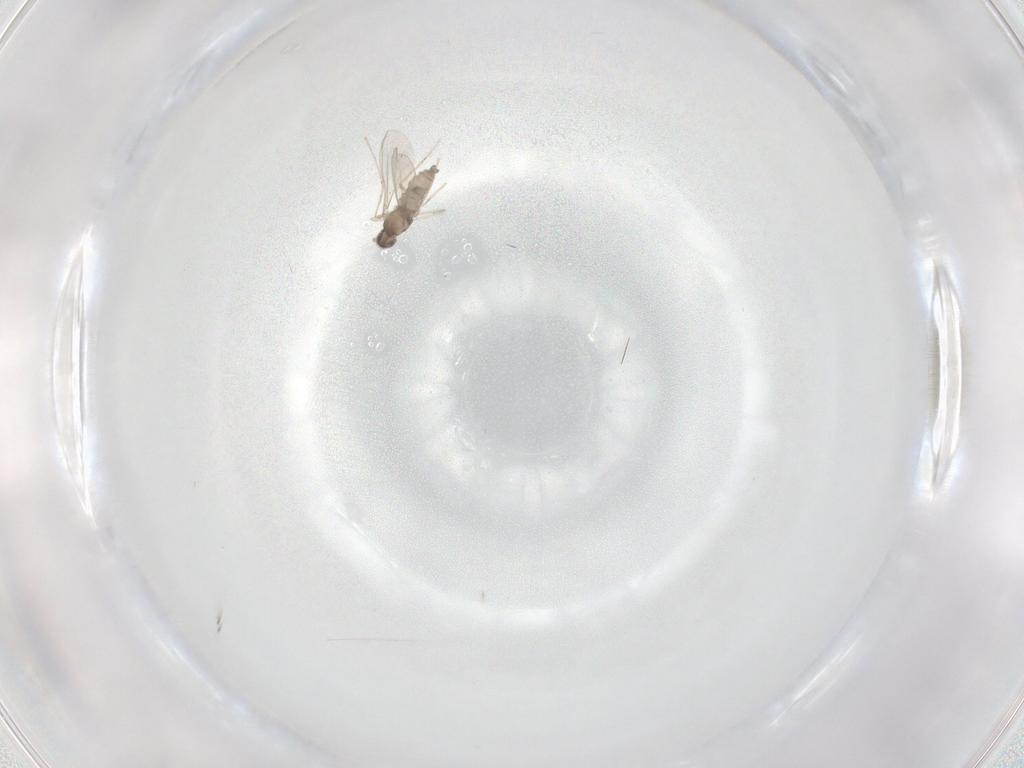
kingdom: Animalia
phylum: Arthropoda
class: Insecta
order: Diptera
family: Cecidomyiidae
